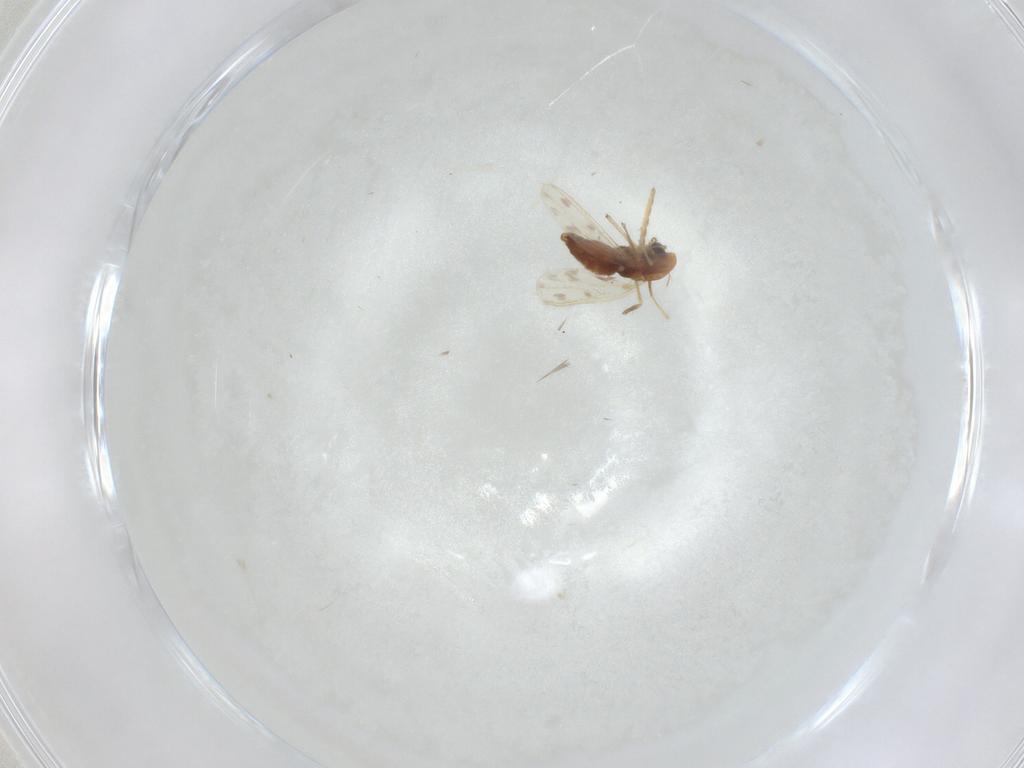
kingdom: Animalia
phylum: Arthropoda
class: Insecta
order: Diptera
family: Chironomidae
